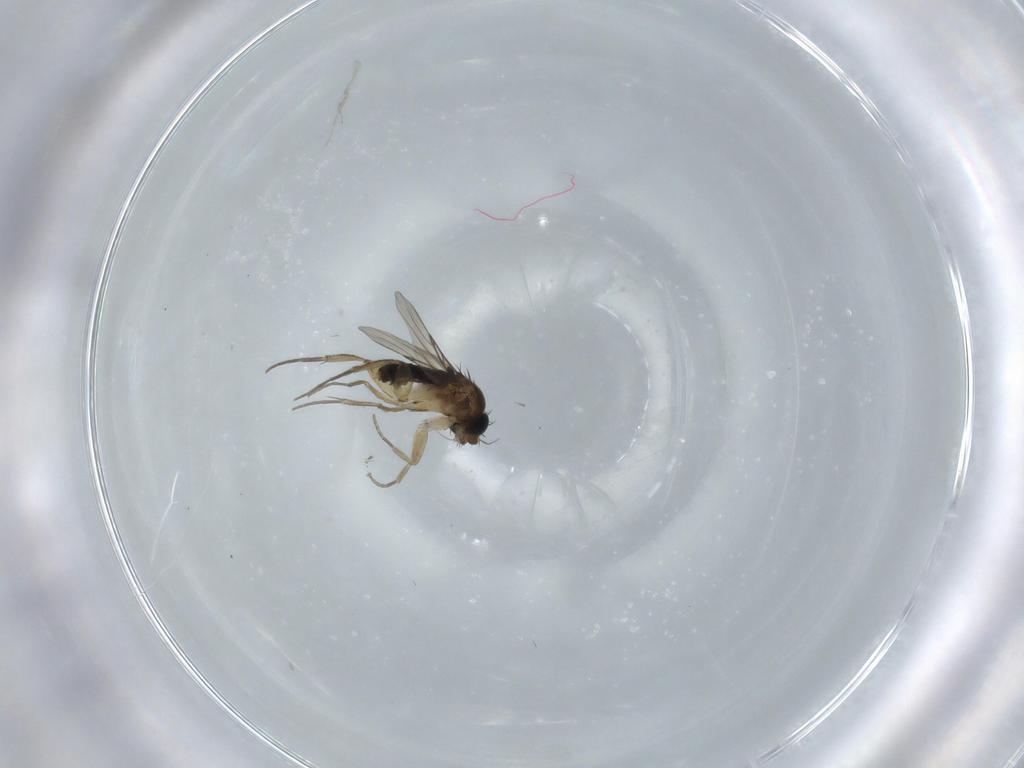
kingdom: Animalia
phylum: Arthropoda
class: Insecta
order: Diptera
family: Phoridae
